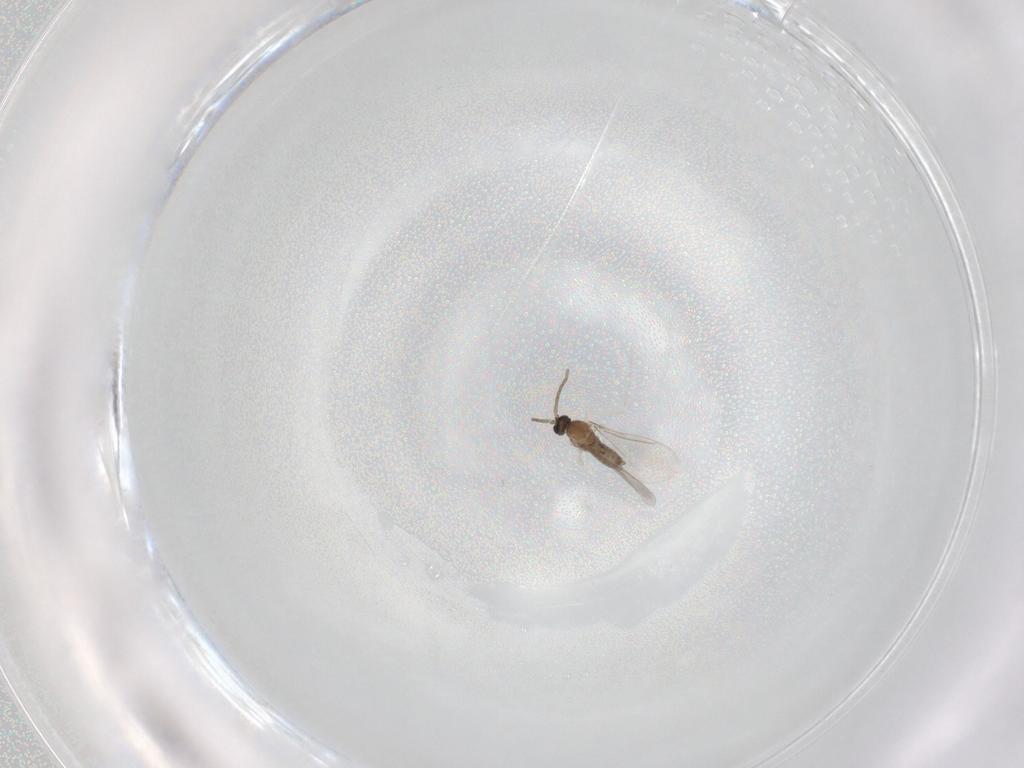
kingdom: Animalia
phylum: Arthropoda
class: Insecta
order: Diptera
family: Cecidomyiidae
